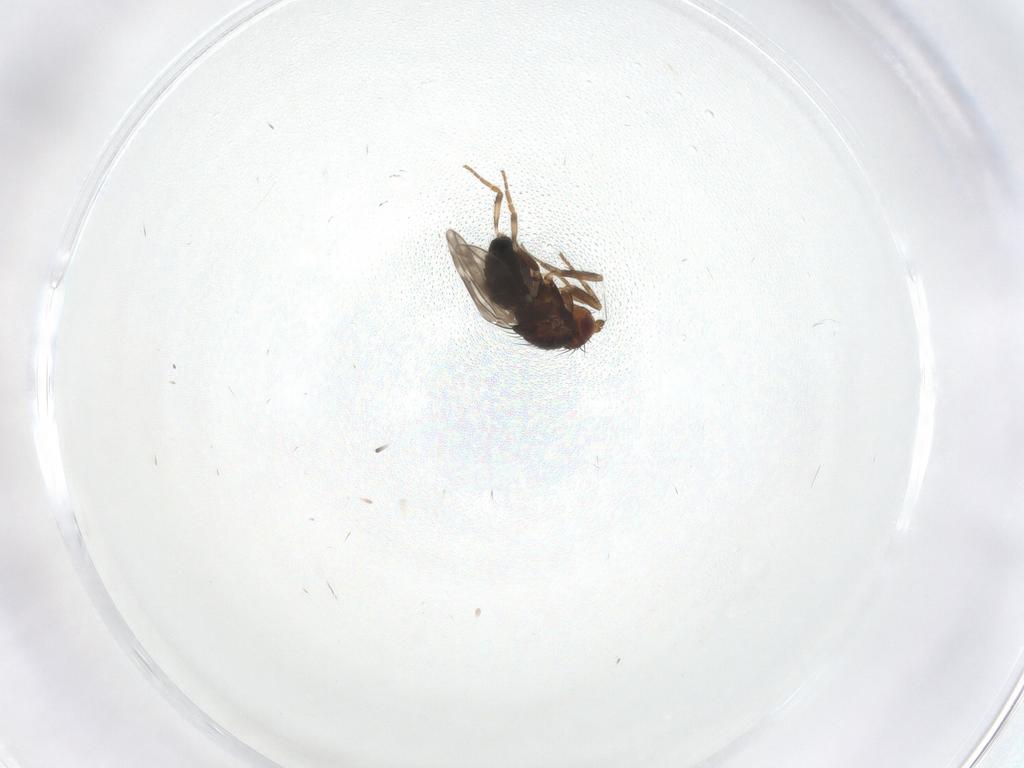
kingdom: Animalia
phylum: Arthropoda
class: Insecta
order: Diptera
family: Sphaeroceridae
